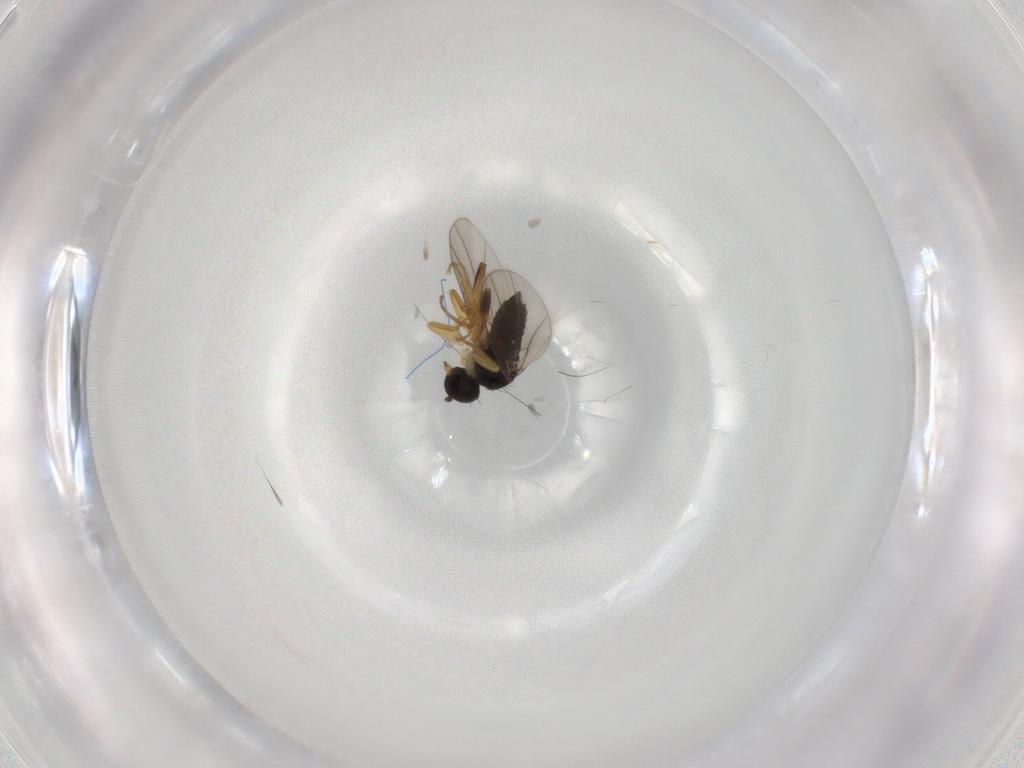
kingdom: Animalia
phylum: Arthropoda
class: Insecta
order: Diptera
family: Hybotidae
